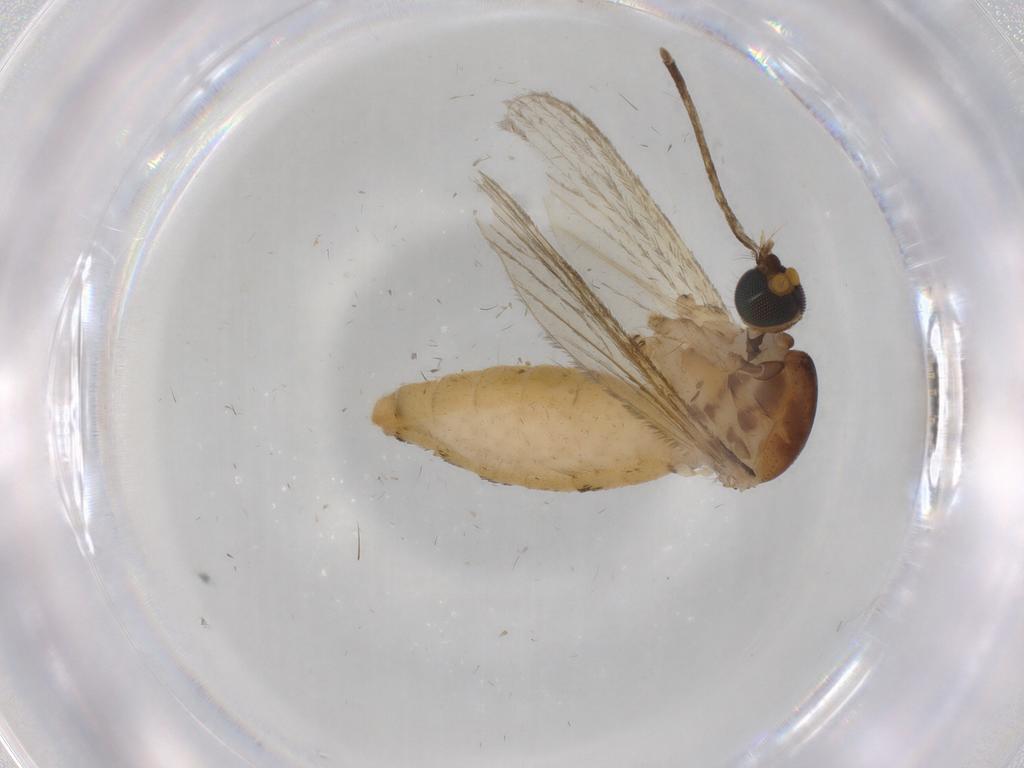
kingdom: Animalia
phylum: Arthropoda
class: Insecta
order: Diptera
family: Culicidae
